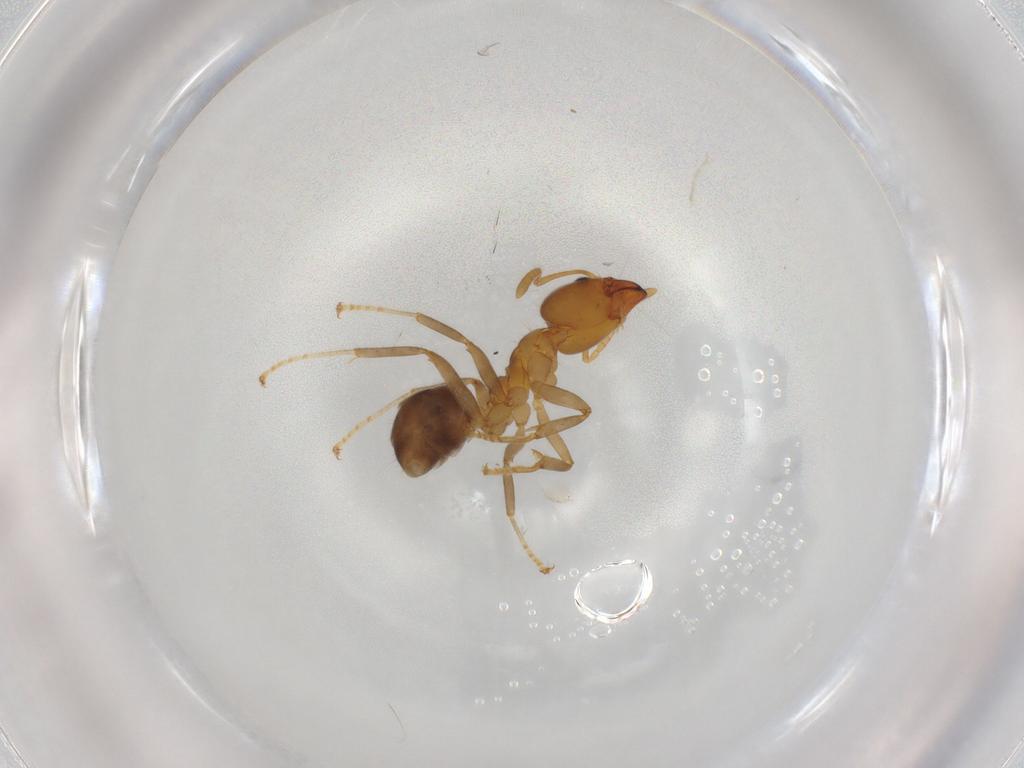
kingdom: Animalia
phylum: Arthropoda
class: Insecta
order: Hymenoptera
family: Formicidae
